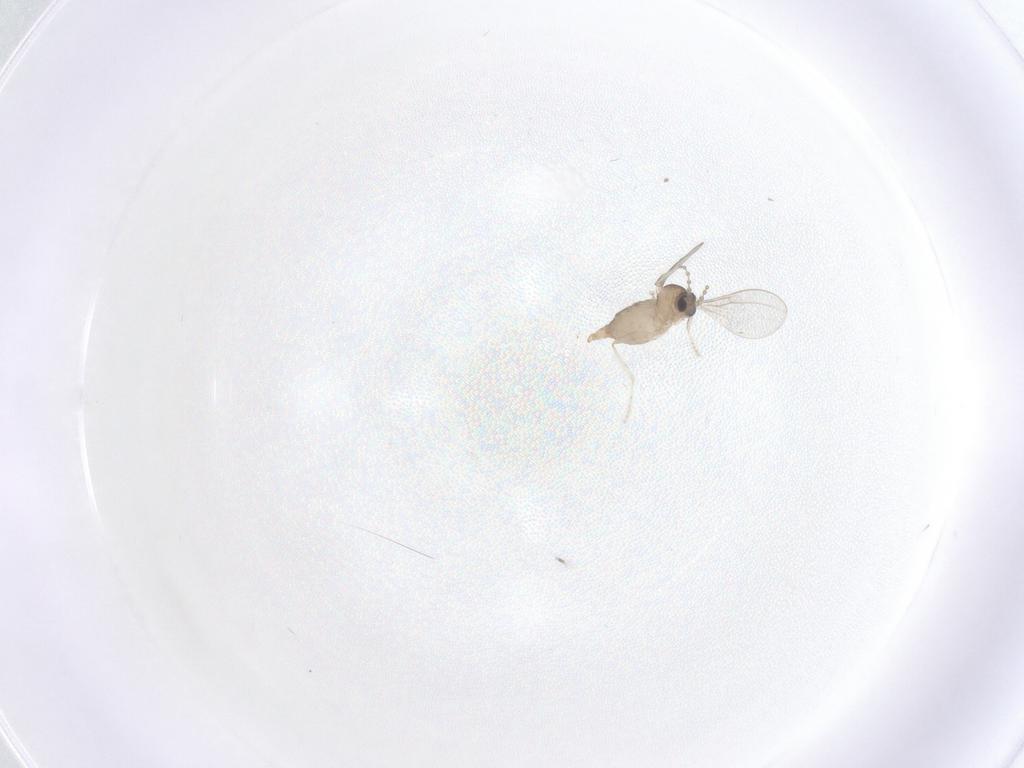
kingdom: Animalia
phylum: Arthropoda
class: Insecta
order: Diptera
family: Cecidomyiidae
